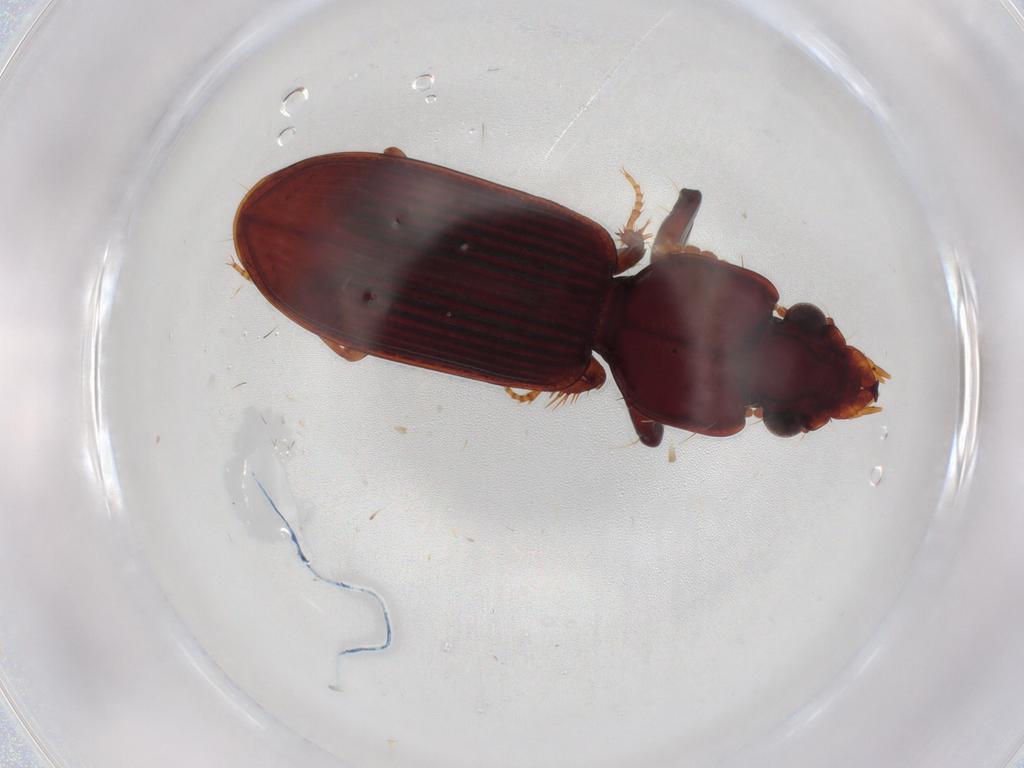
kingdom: Animalia
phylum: Arthropoda
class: Insecta
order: Coleoptera
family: Carabidae
